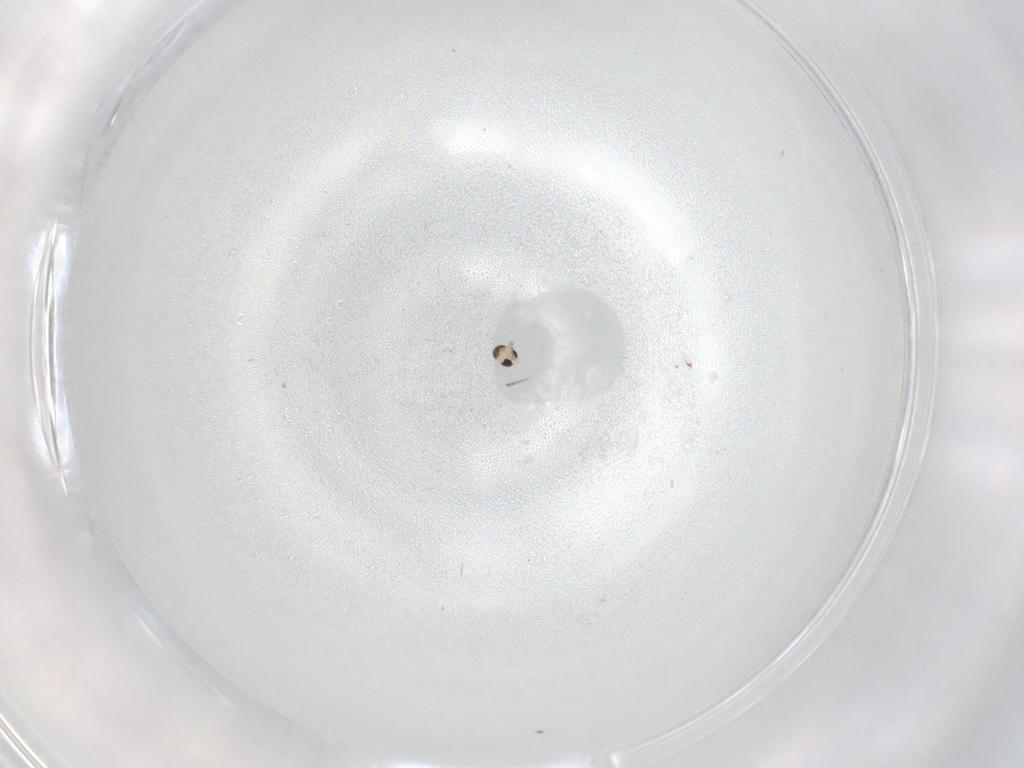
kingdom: Animalia
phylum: Arthropoda
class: Insecta
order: Diptera
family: Cecidomyiidae
